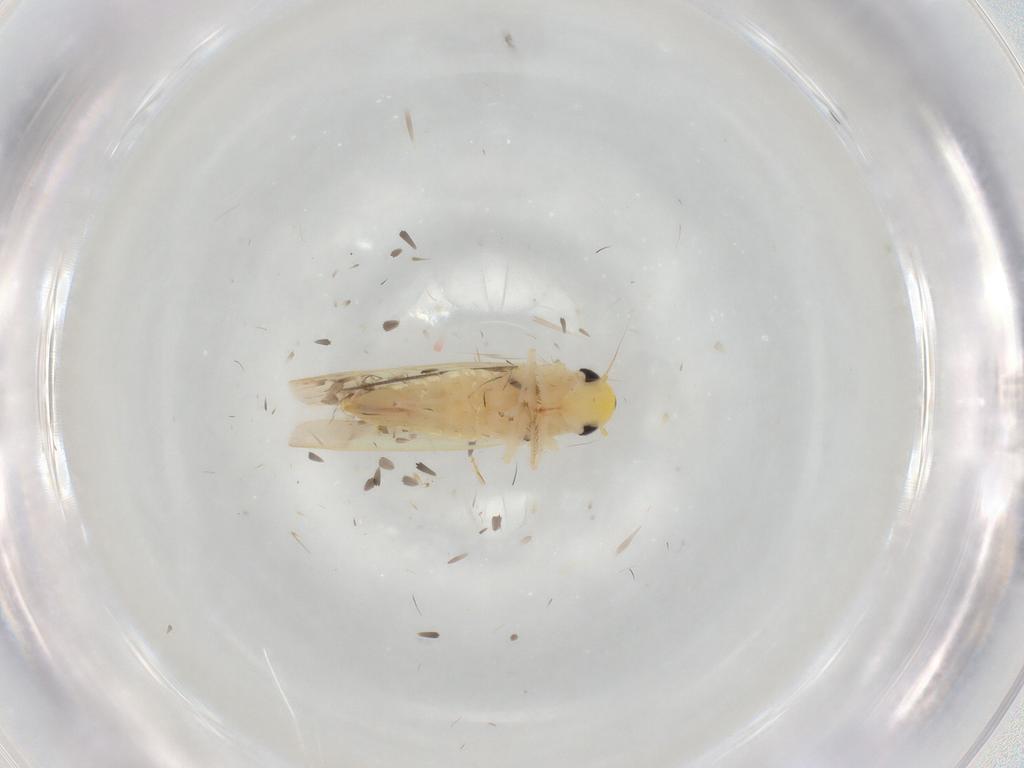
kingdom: Animalia
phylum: Arthropoda
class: Insecta
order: Hemiptera
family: Cicadellidae
